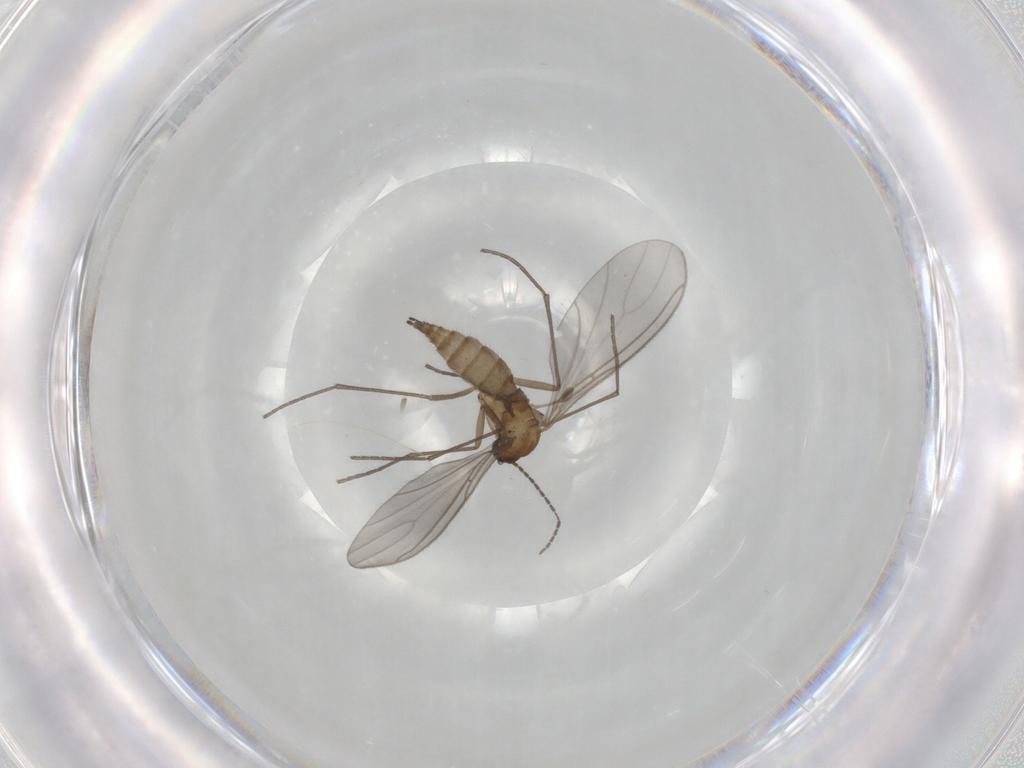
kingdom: Animalia
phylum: Arthropoda
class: Insecta
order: Diptera
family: Sciaridae
